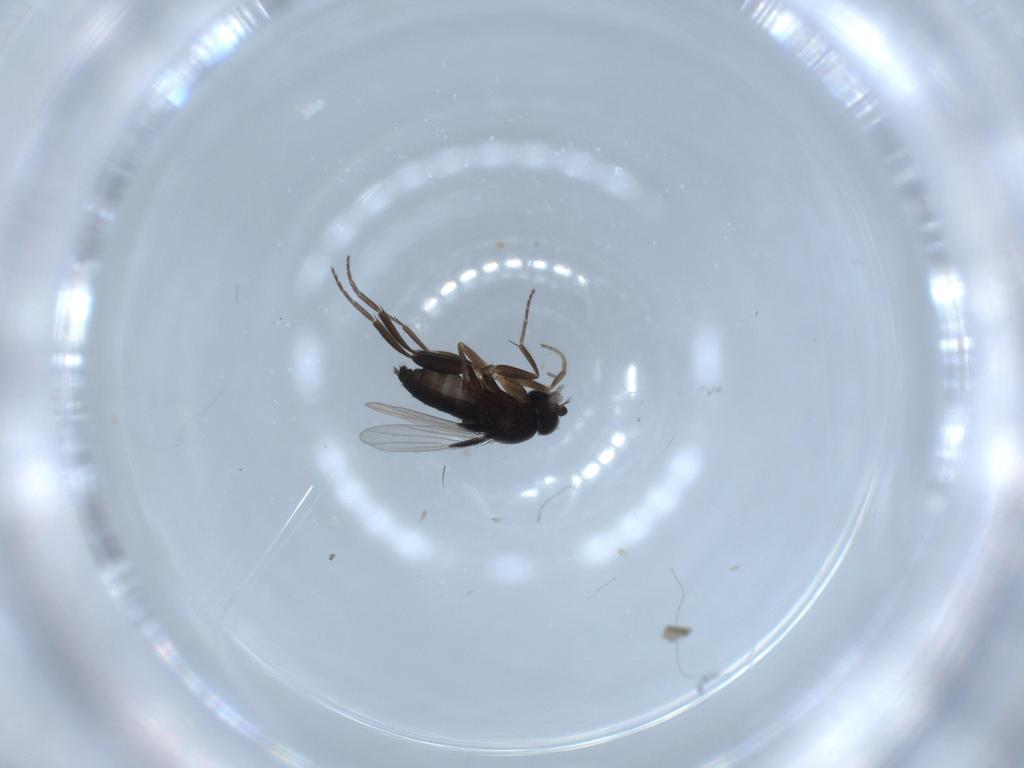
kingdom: Animalia
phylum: Arthropoda
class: Insecta
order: Diptera
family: Phoridae
